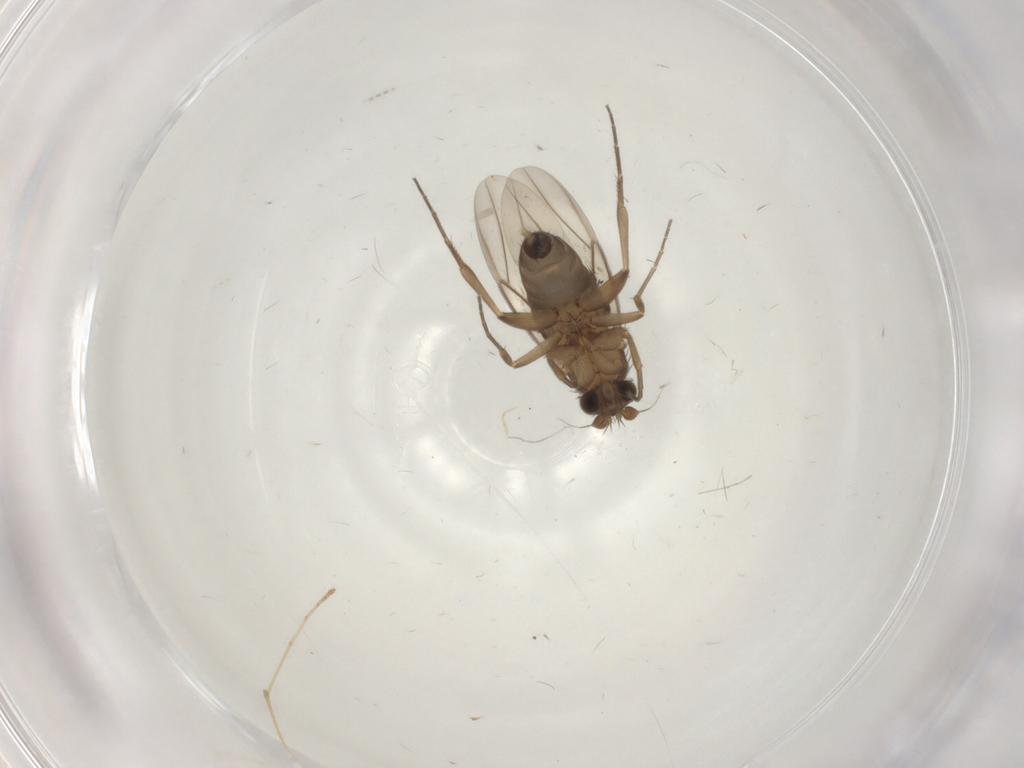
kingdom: Animalia
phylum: Arthropoda
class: Insecta
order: Diptera
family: Phoridae
